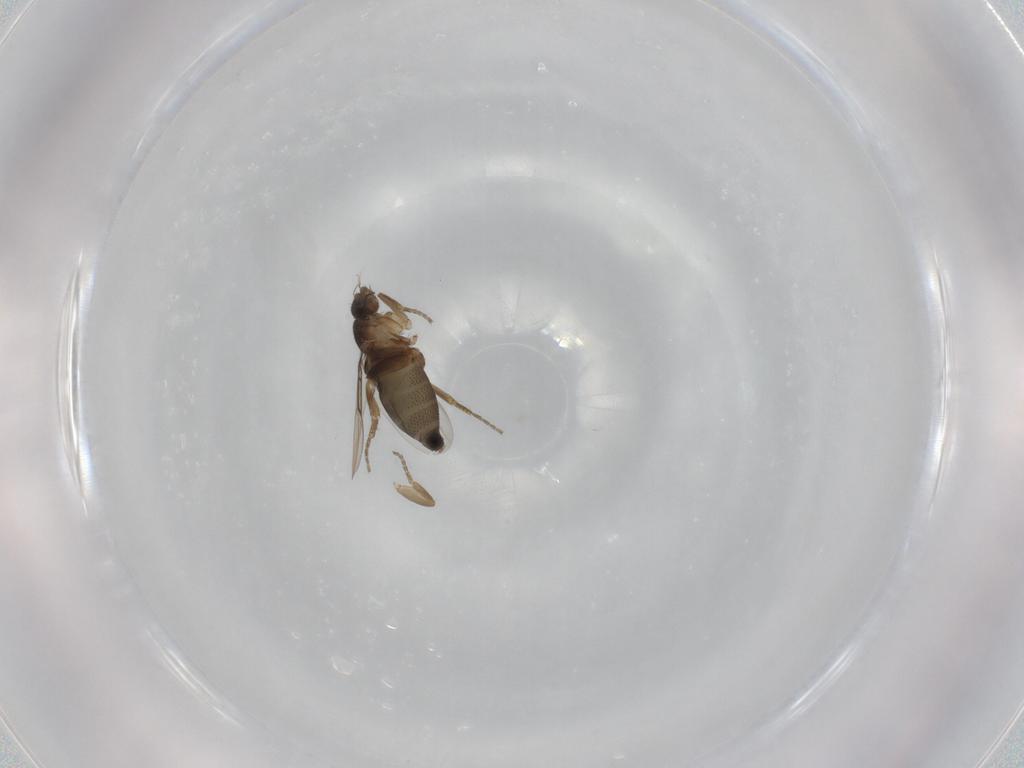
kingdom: Animalia
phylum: Arthropoda
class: Insecta
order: Diptera
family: Phoridae
